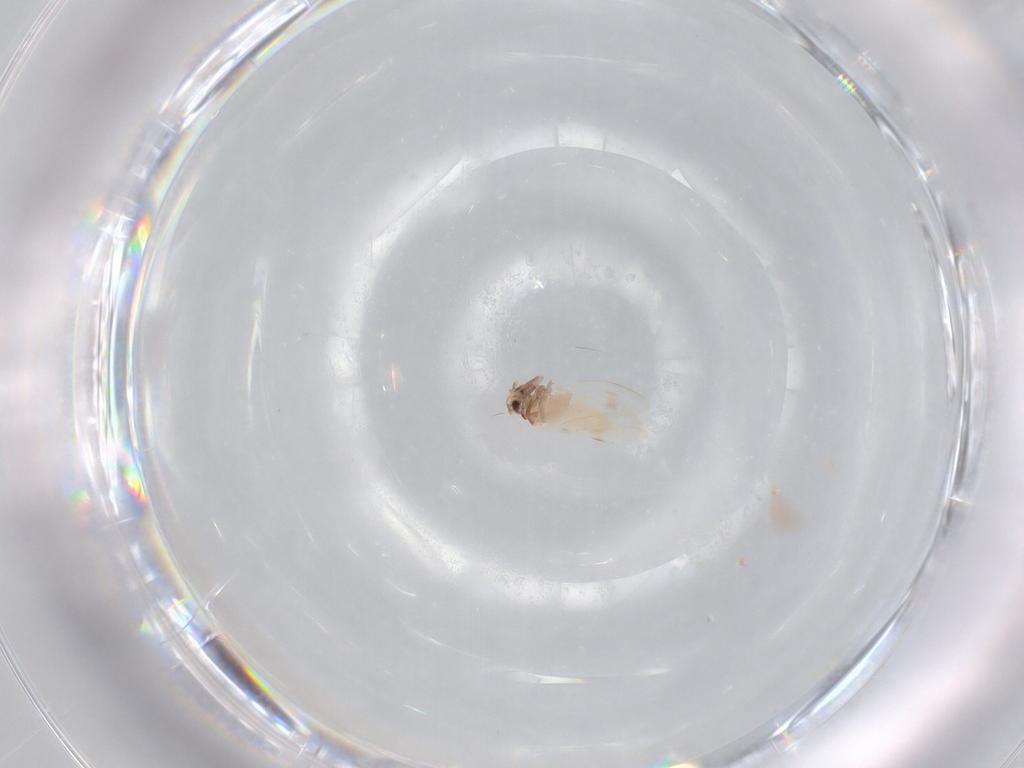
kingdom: Animalia
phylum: Arthropoda
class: Insecta
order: Hemiptera
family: Aleyrodidae
